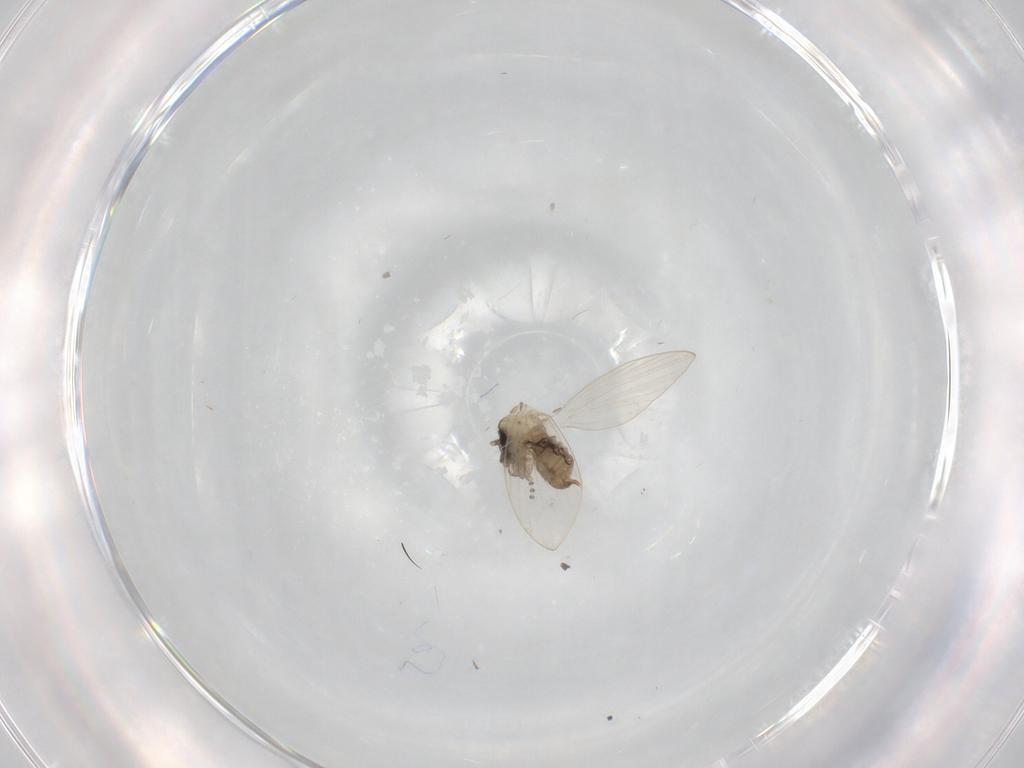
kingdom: Animalia
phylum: Arthropoda
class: Insecta
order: Diptera
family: Psychodidae
